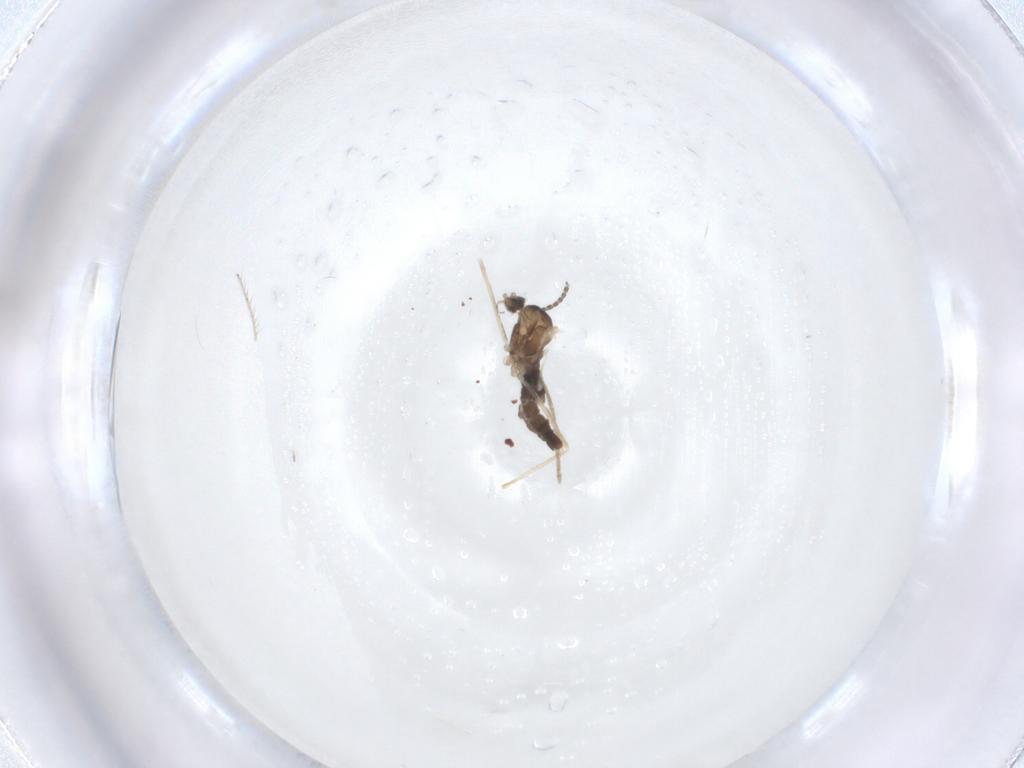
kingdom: Animalia
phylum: Arthropoda
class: Insecta
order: Diptera
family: Cecidomyiidae
